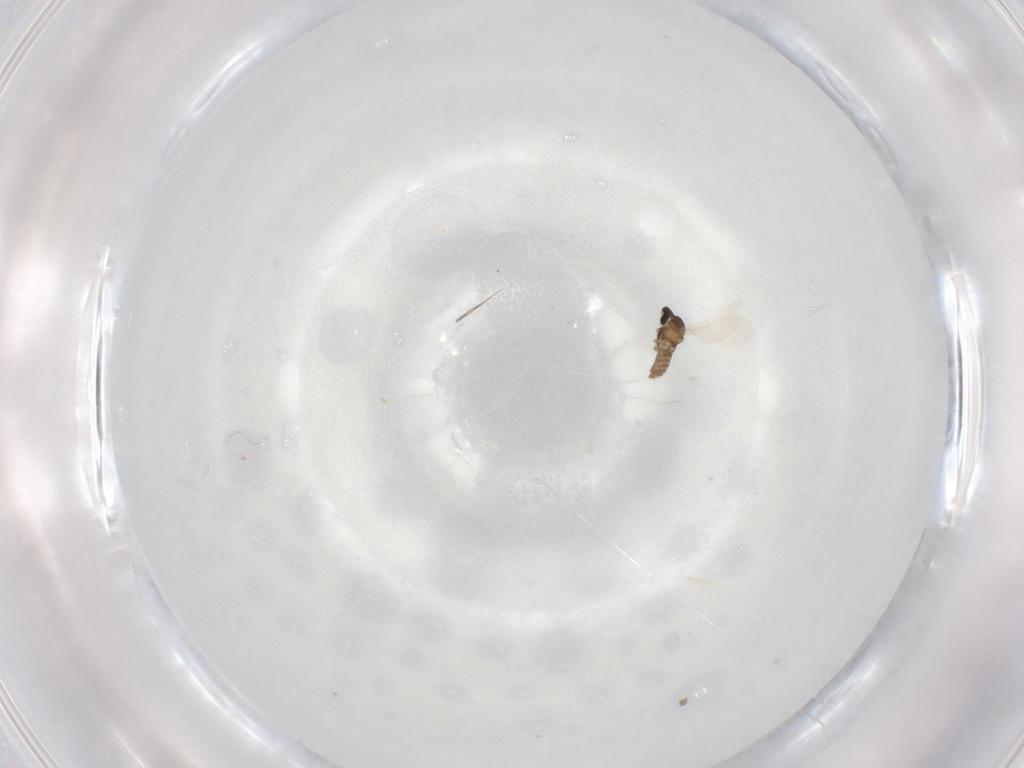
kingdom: Animalia
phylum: Arthropoda
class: Insecta
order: Diptera
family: Cecidomyiidae
